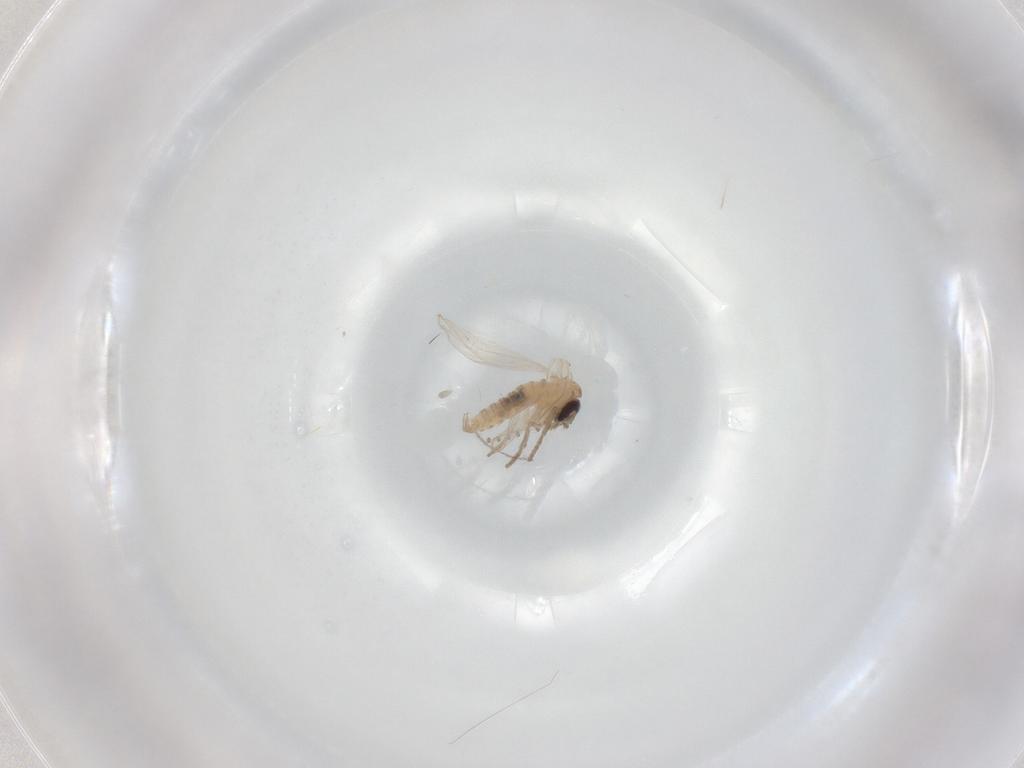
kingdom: Animalia
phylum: Arthropoda
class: Insecta
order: Diptera
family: Psychodidae
